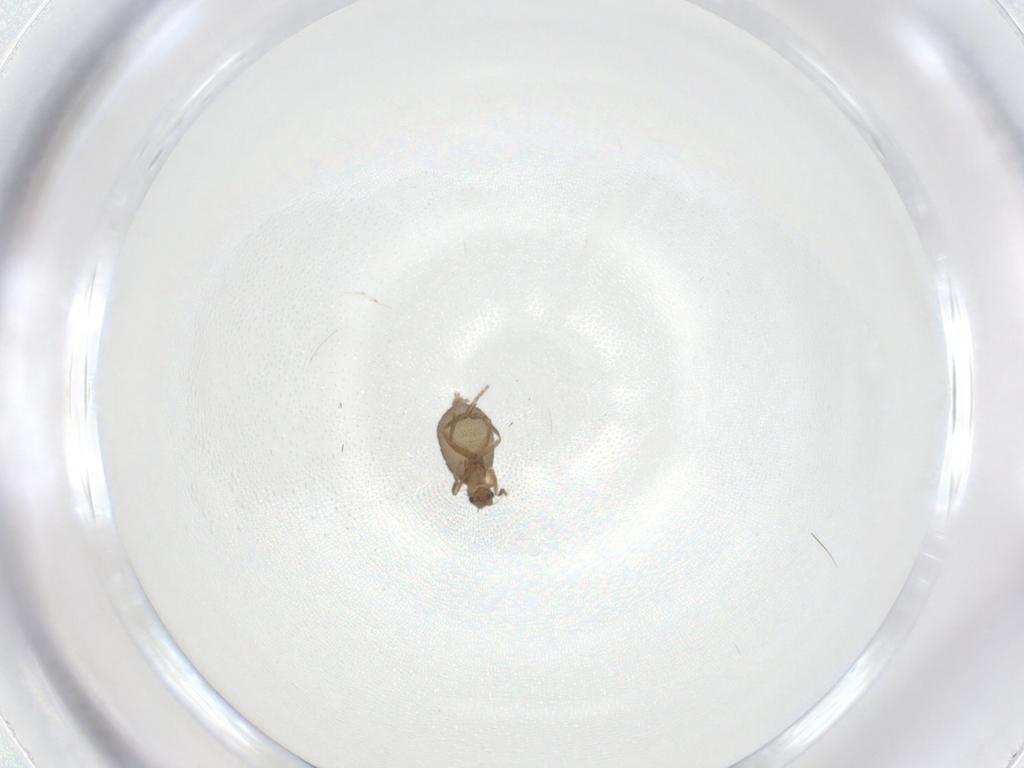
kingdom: Animalia
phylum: Arthropoda
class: Insecta
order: Diptera
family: Phoridae
